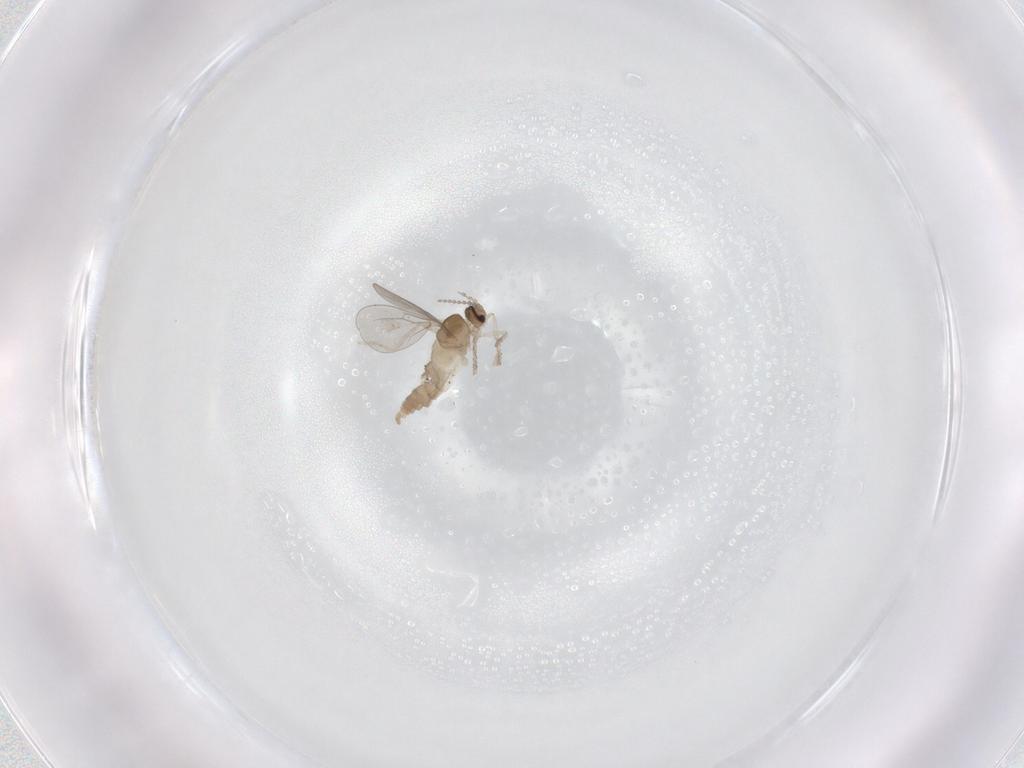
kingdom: Animalia
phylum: Arthropoda
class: Insecta
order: Diptera
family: Cecidomyiidae
